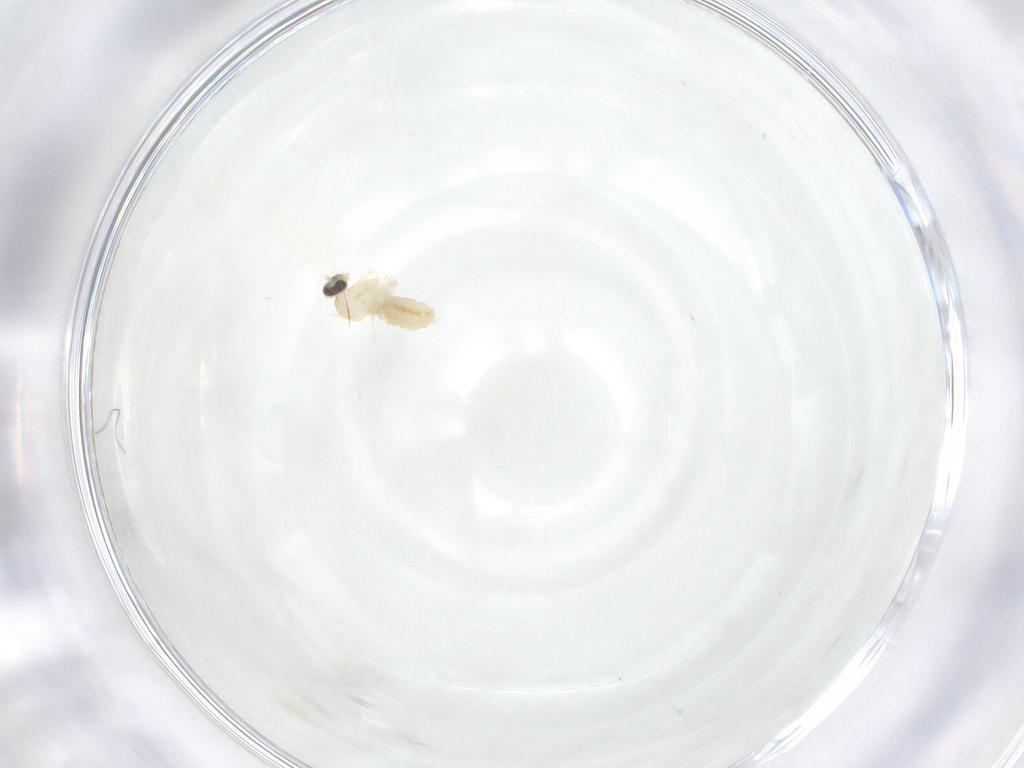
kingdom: Animalia
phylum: Arthropoda
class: Insecta
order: Diptera
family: Cecidomyiidae
